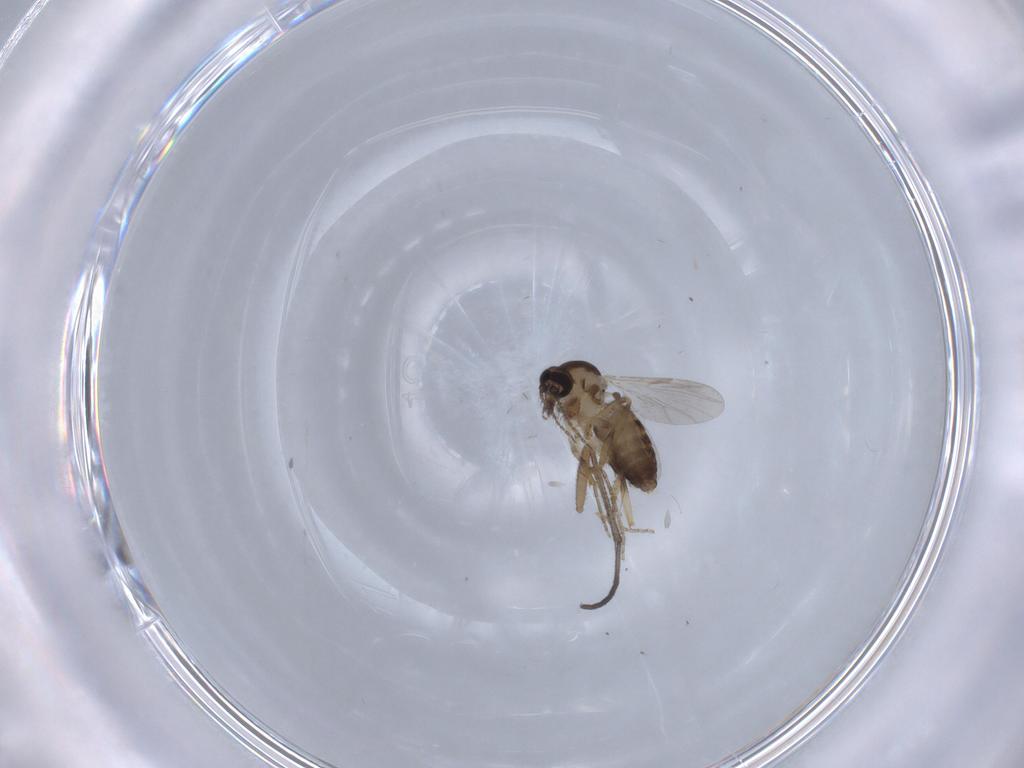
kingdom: Animalia
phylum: Arthropoda
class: Insecta
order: Diptera
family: Ceratopogonidae
